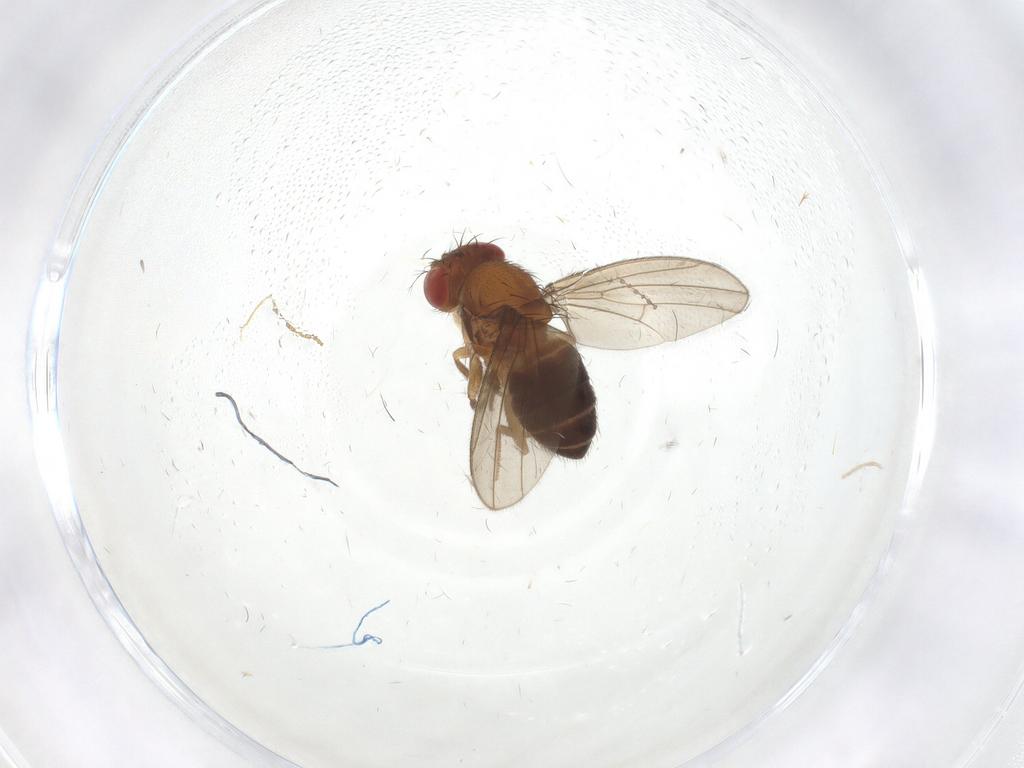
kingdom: Animalia
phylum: Arthropoda
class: Insecta
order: Diptera
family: Drosophilidae
